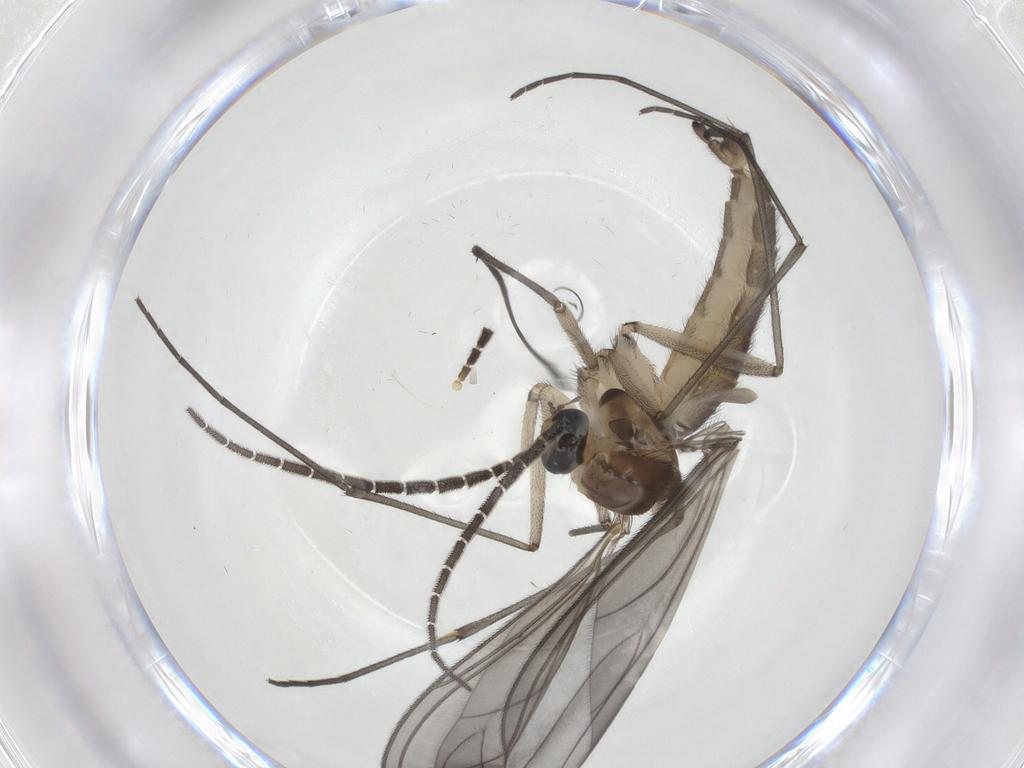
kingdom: Animalia
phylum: Arthropoda
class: Insecta
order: Diptera
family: Sciaridae
